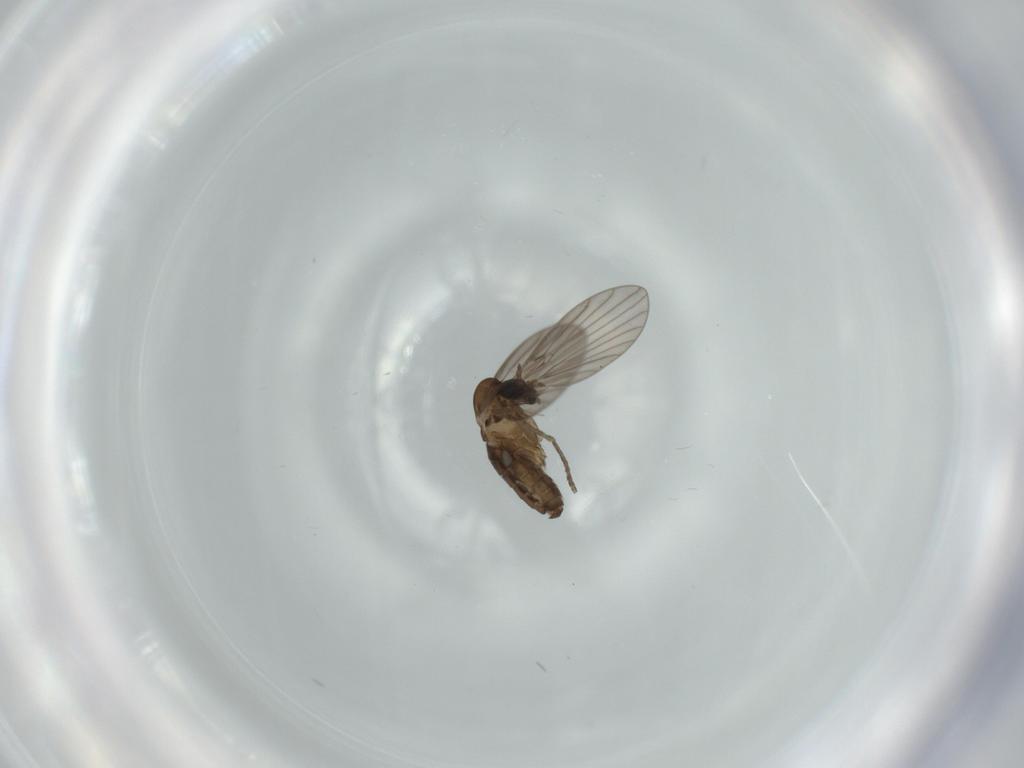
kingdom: Animalia
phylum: Arthropoda
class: Insecta
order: Diptera
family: Psychodidae
